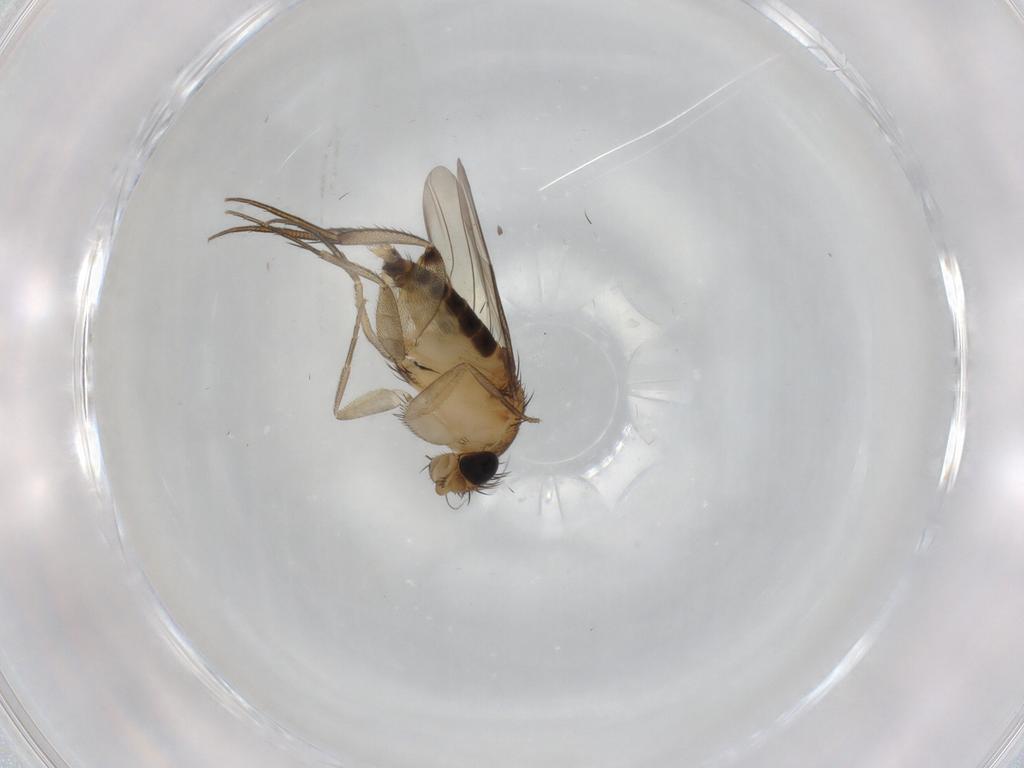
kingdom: Animalia
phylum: Arthropoda
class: Insecta
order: Diptera
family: Phoridae
